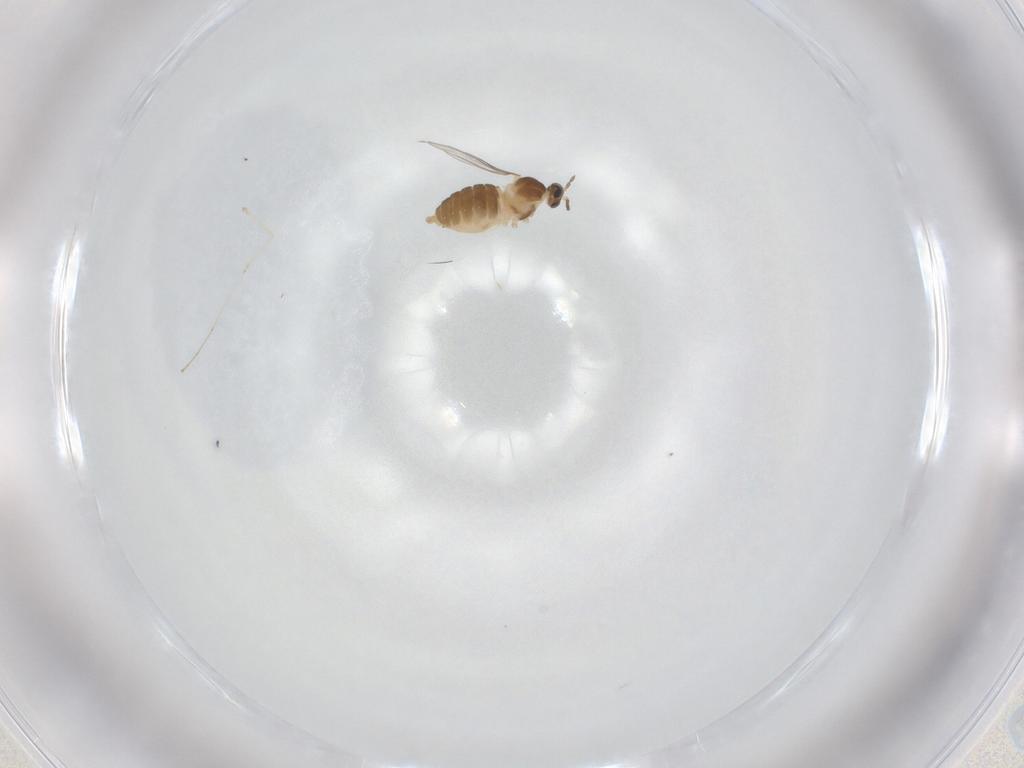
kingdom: Animalia
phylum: Arthropoda
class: Insecta
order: Diptera
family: Cecidomyiidae
